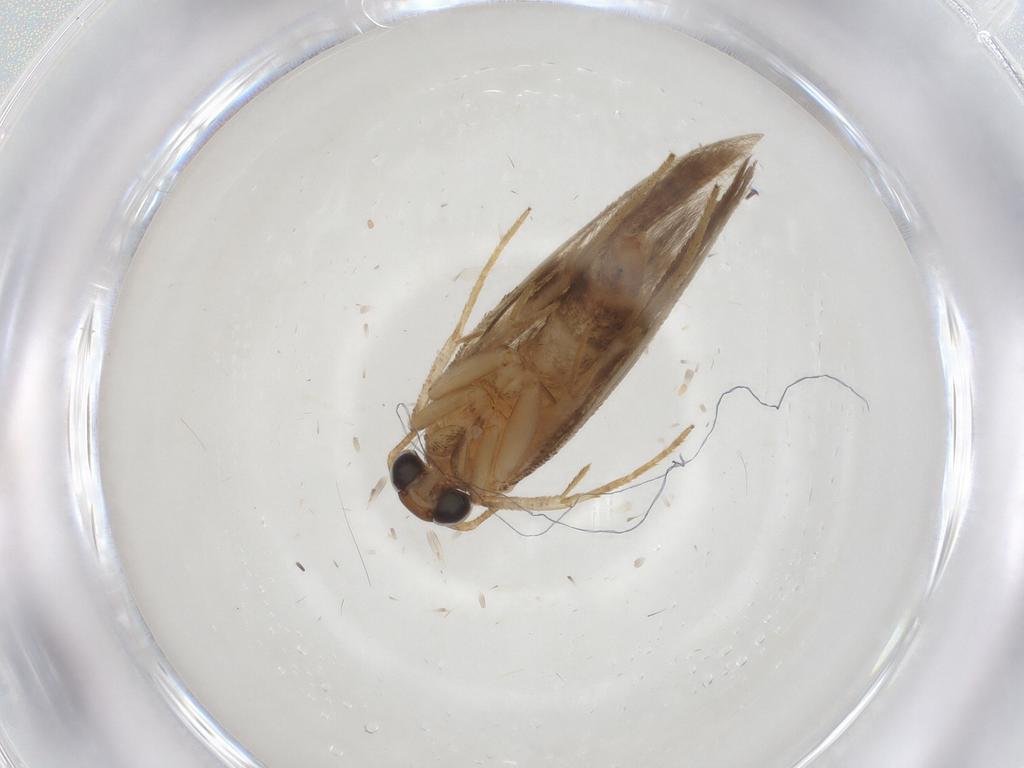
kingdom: Animalia
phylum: Arthropoda
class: Insecta
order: Lepidoptera
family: Gelechiidae
